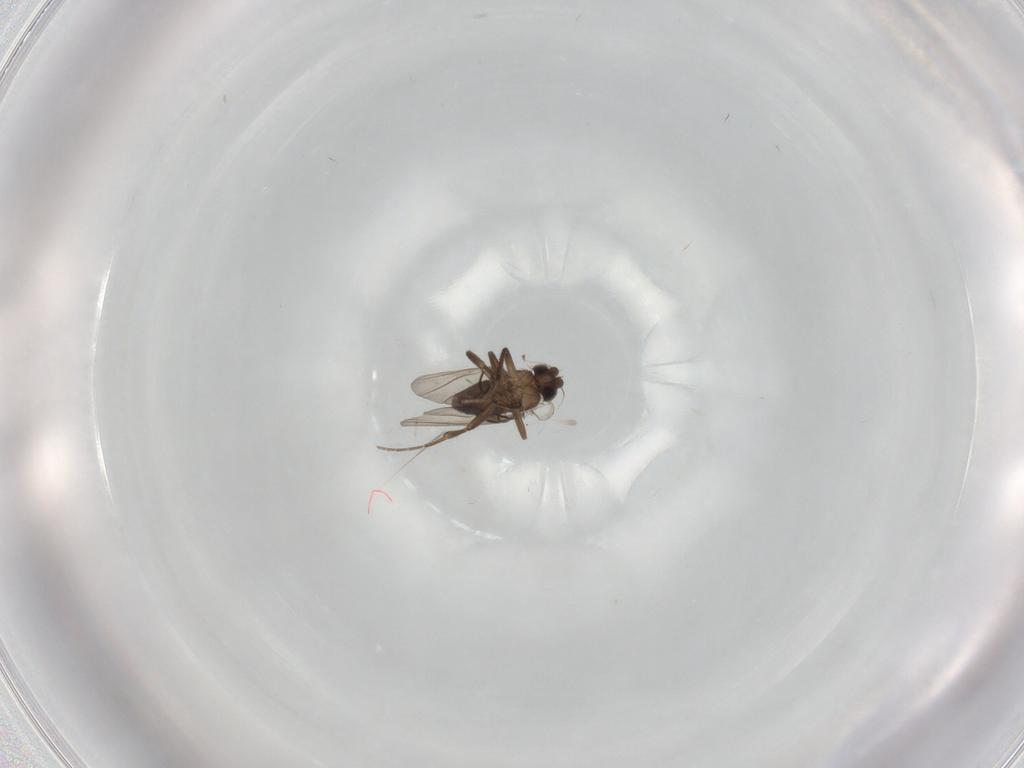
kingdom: Animalia
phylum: Arthropoda
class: Insecta
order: Diptera
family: Phoridae
